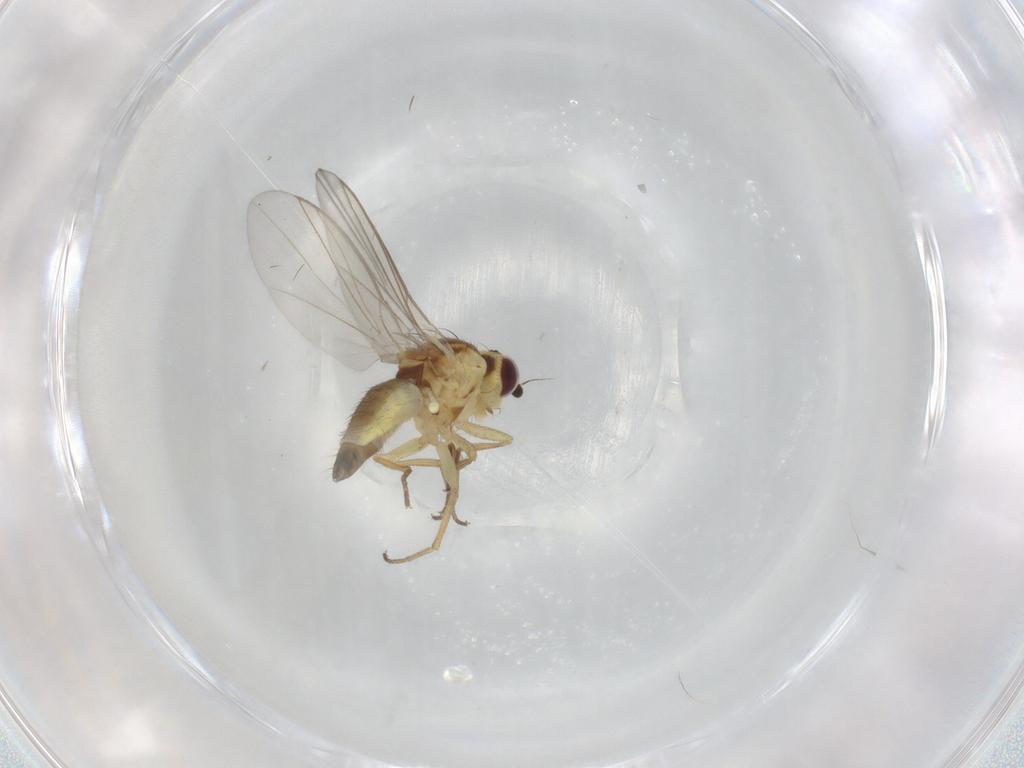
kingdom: Animalia
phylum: Arthropoda
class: Insecta
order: Diptera
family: Agromyzidae
